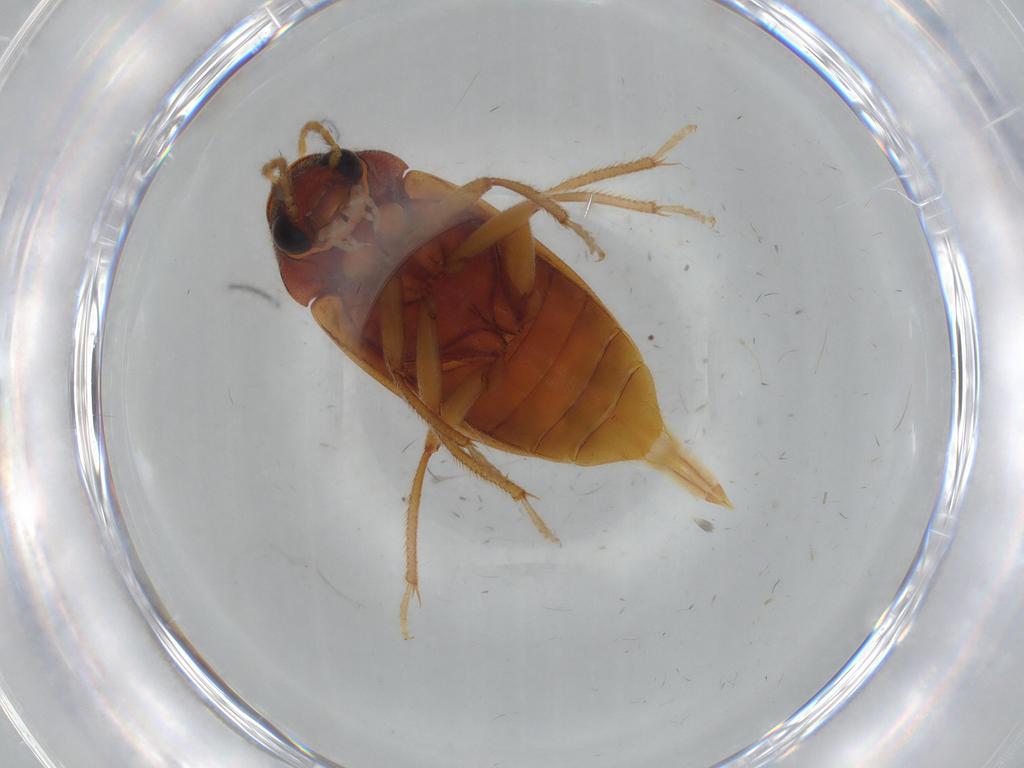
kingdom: Animalia
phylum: Arthropoda
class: Insecta
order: Coleoptera
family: Ptilodactylidae
